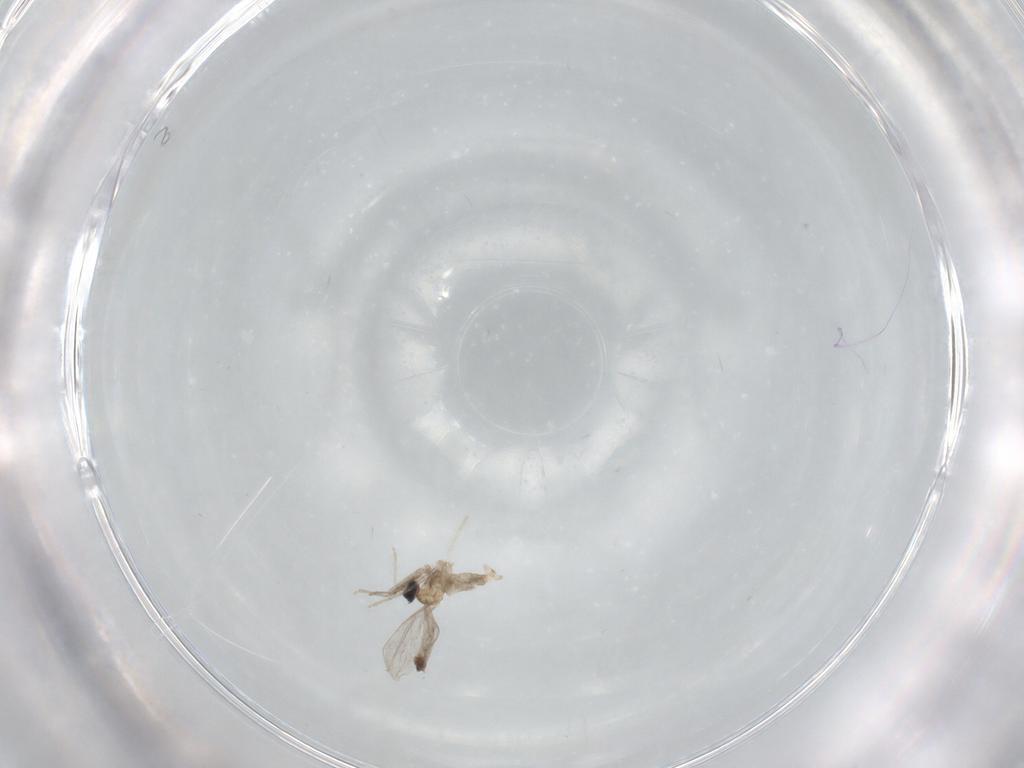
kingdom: Animalia
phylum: Arthropoda
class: Insecta
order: Diptera
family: Cecidomyiidae
